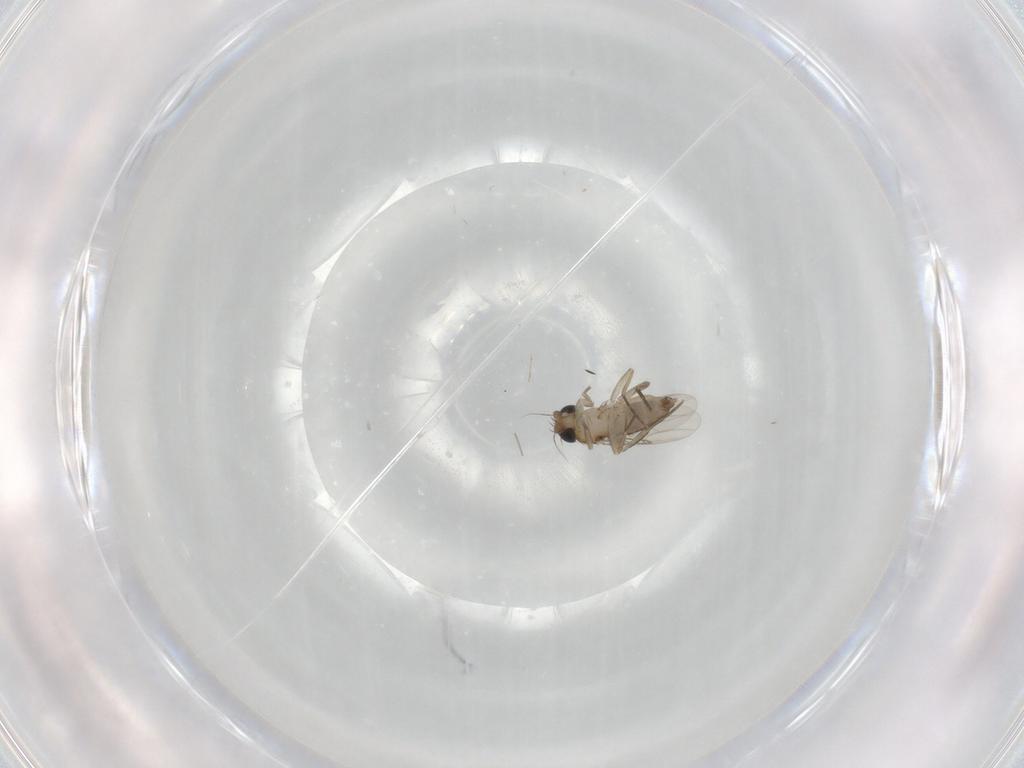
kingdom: Animalia
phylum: Arthropoda
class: Insecta
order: Diptera
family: Phoridae
